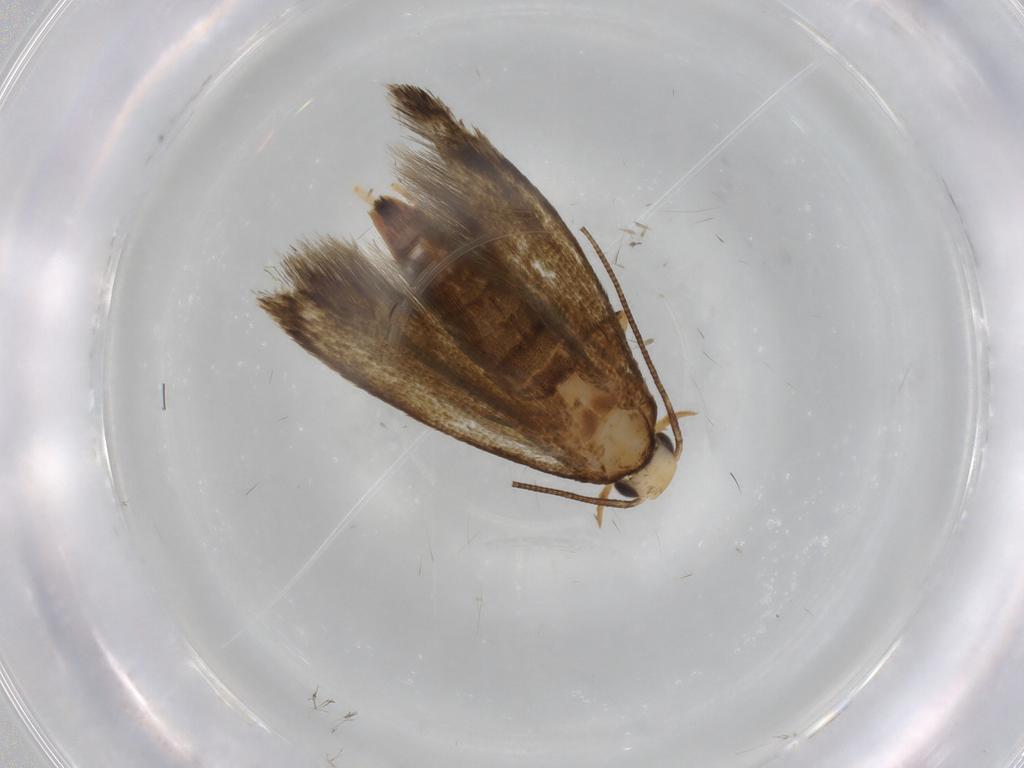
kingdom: Animalia
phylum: Arthropoda
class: Insecta
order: Lepidoptera
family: Tineidae
